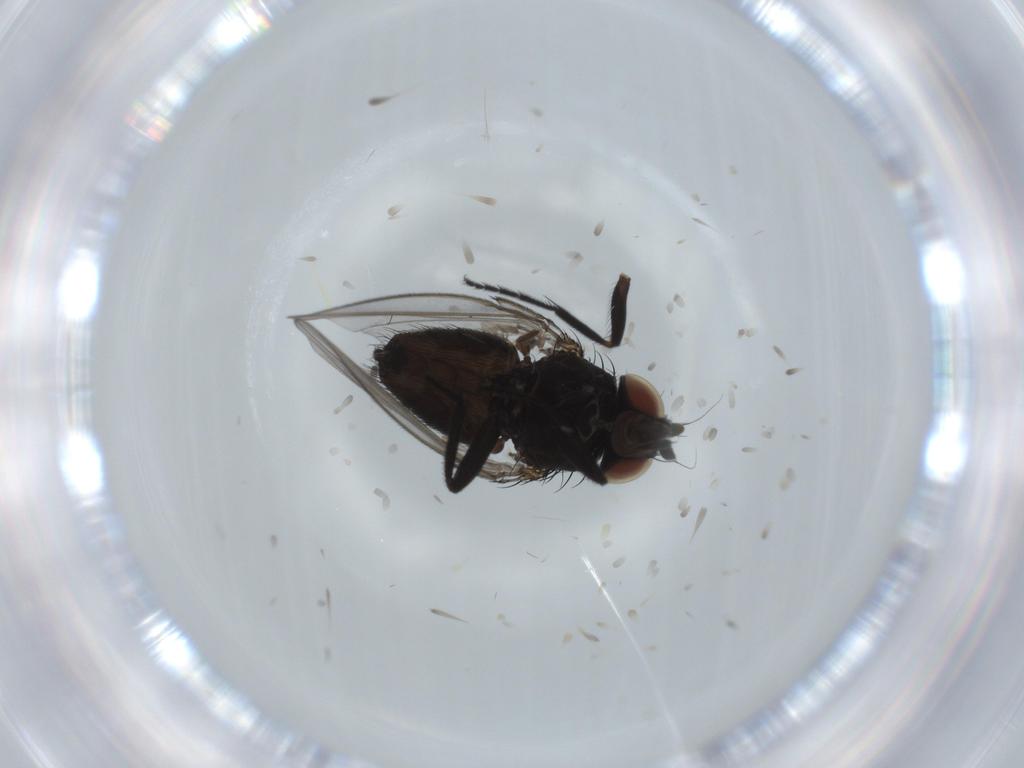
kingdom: Animalia
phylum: Arthropoda
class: Insecta
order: Diptera
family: Milichiidae
